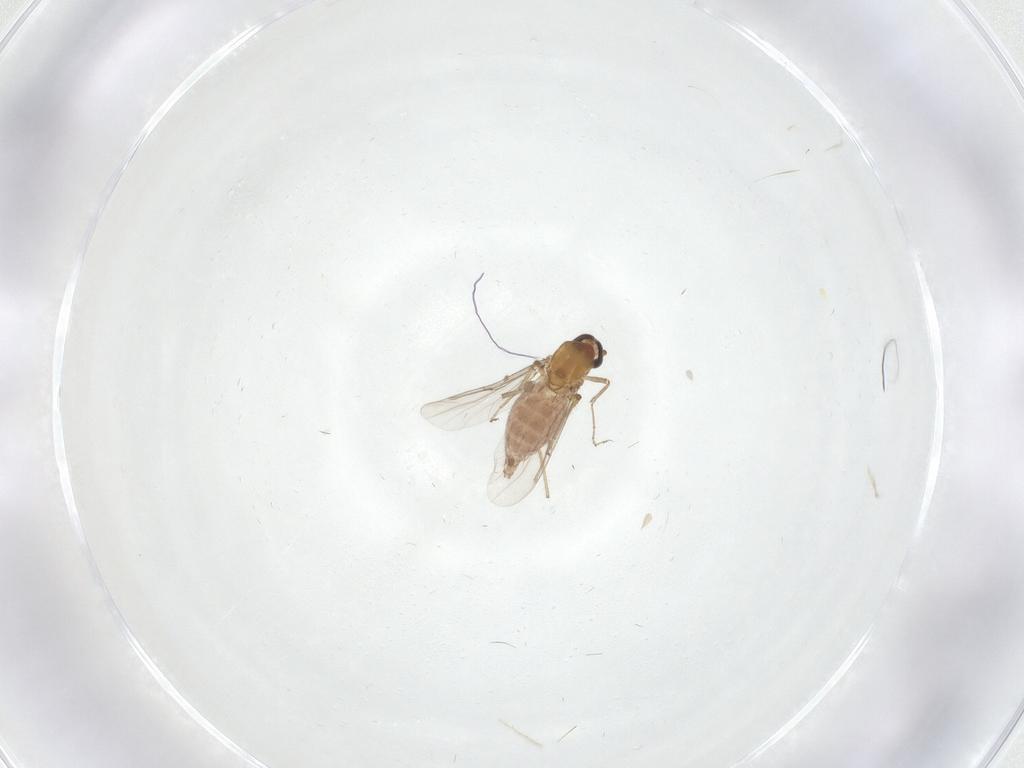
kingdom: Animalia
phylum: Arthropoda
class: Insecta
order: Diptera
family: Ceratopogonidae
